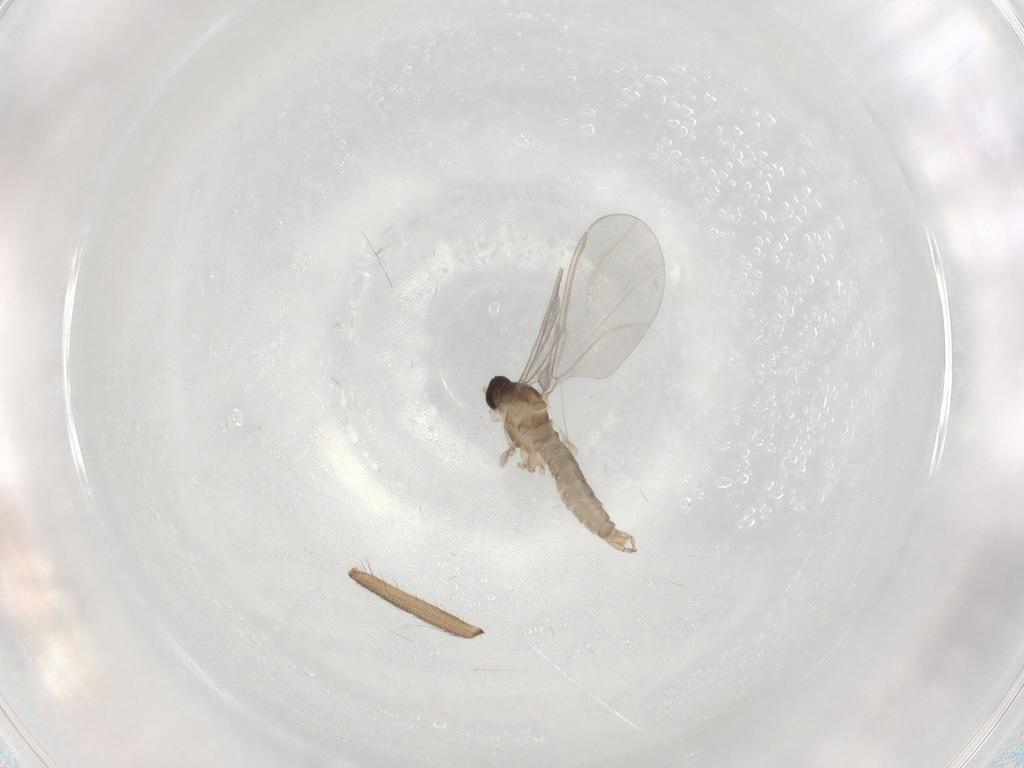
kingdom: Animalia
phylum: Arthropoda
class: Insecta
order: Diptera
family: Cecidomyiidae
